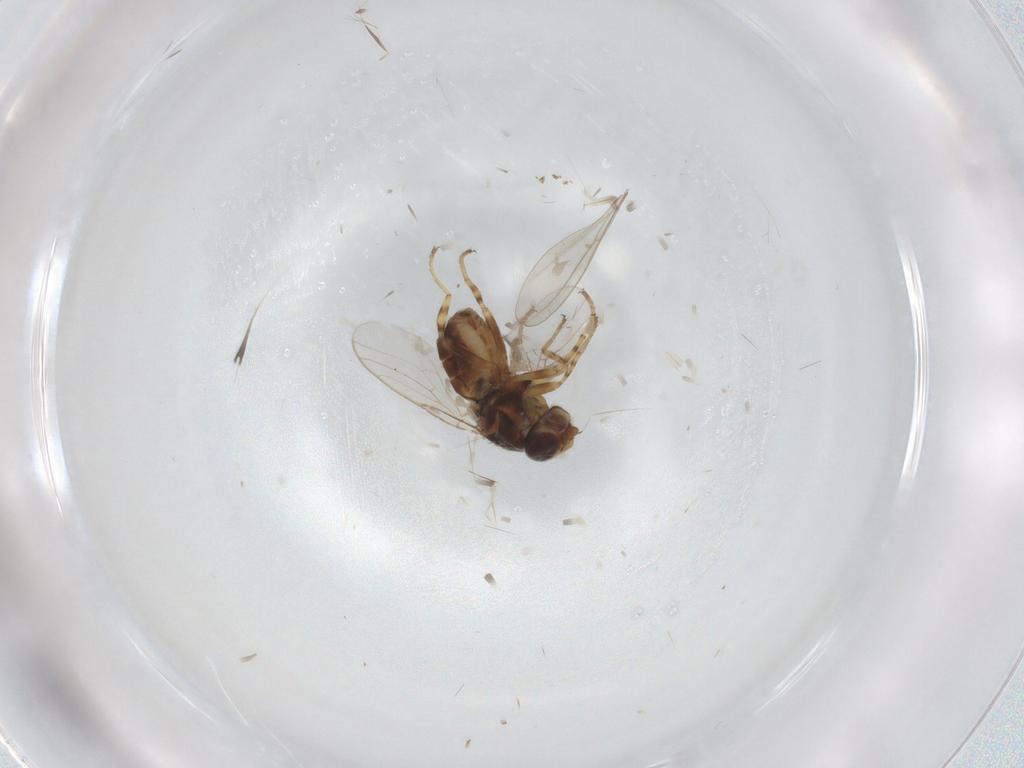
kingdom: Animalia
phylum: Arthropoda
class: Insecta
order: Diptera
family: Chloropidae
